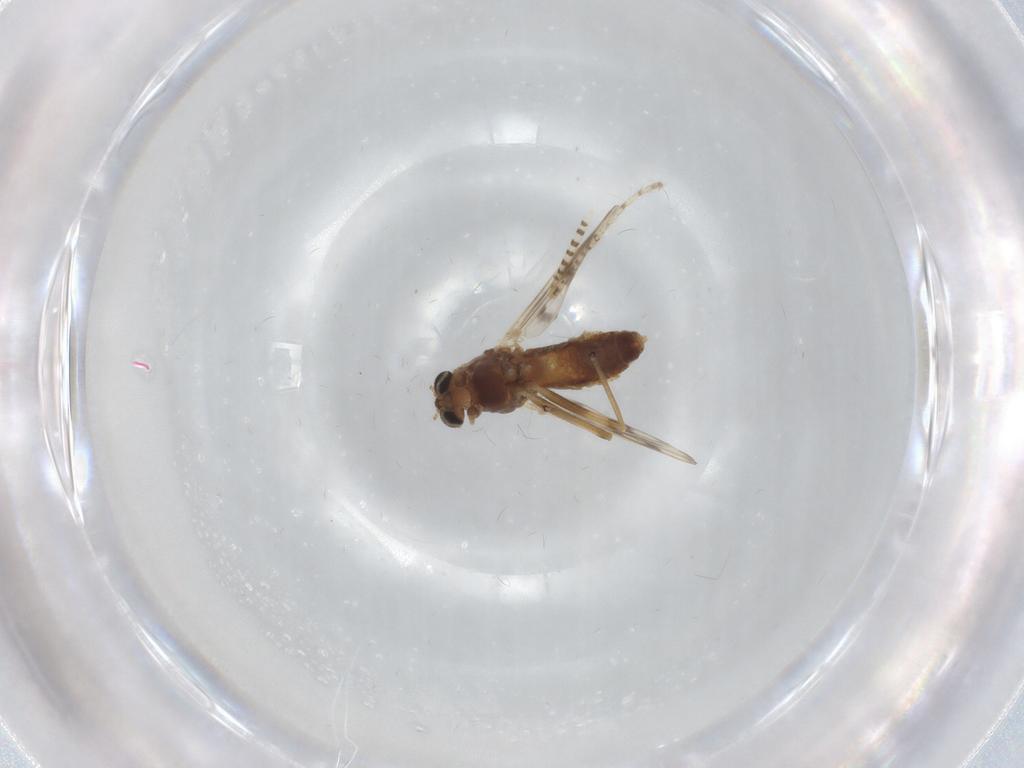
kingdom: Animalia
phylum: Arthropoda
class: Insecta
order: Diptera
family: Chironomidae
